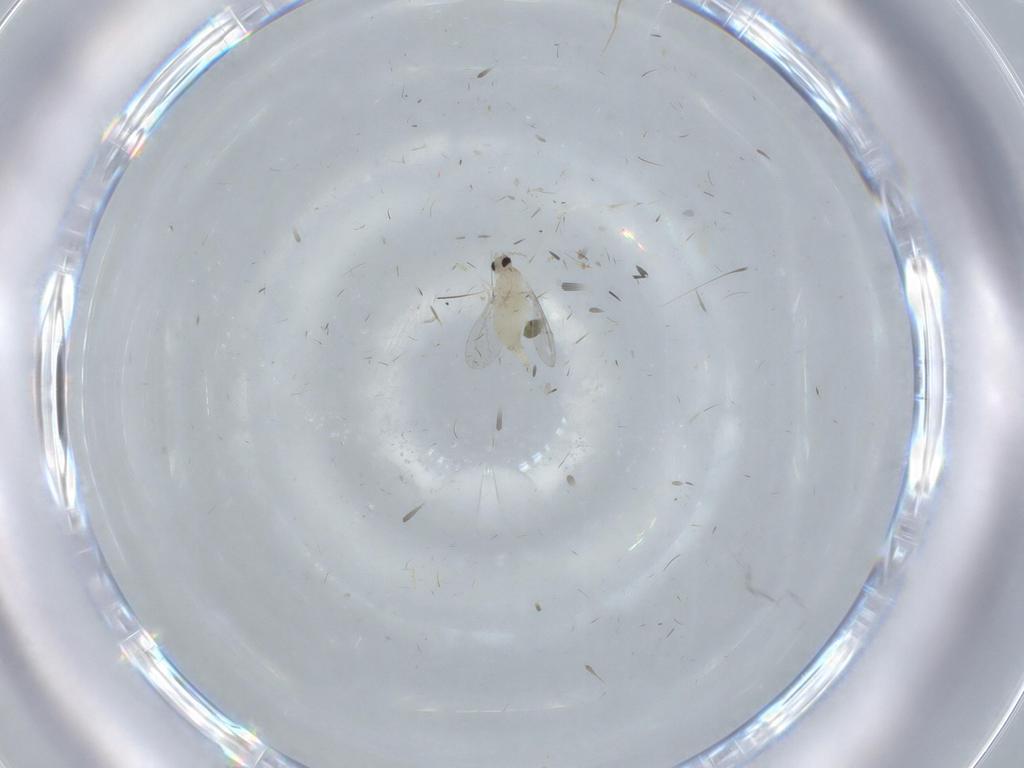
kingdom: Animalia
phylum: Arthropoda
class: Insecta
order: Diptera
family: Cecidomyiidae
